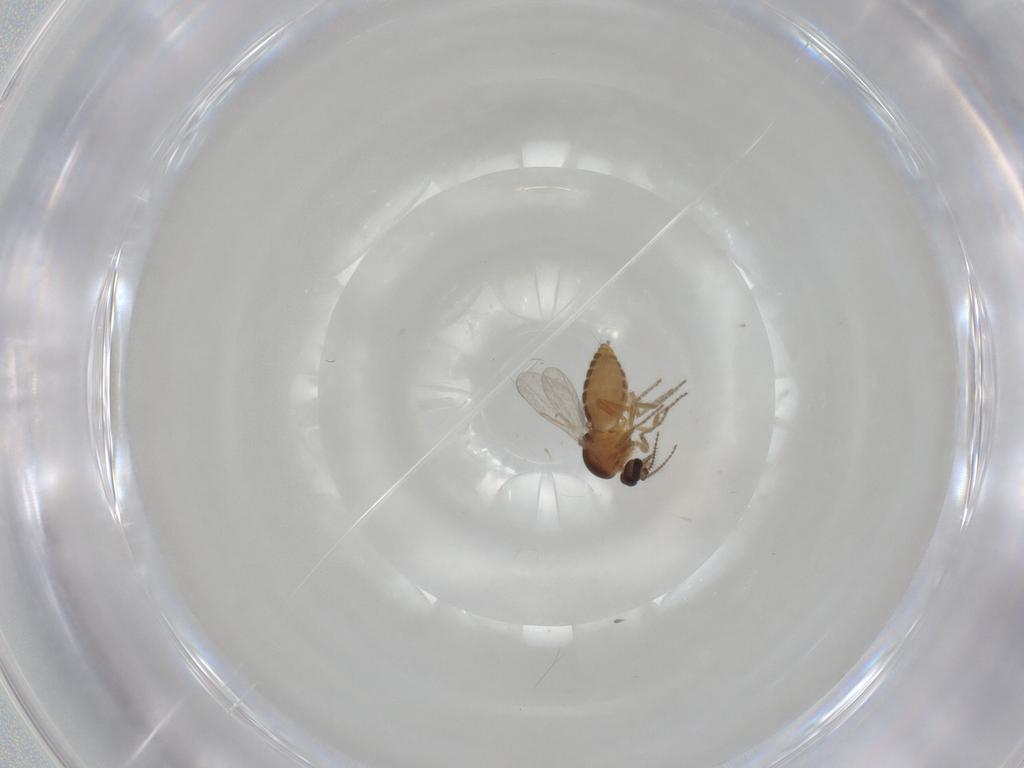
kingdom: Animalia
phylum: Arthropoda
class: Insecta
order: Diptera
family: Ceratopogonidae
